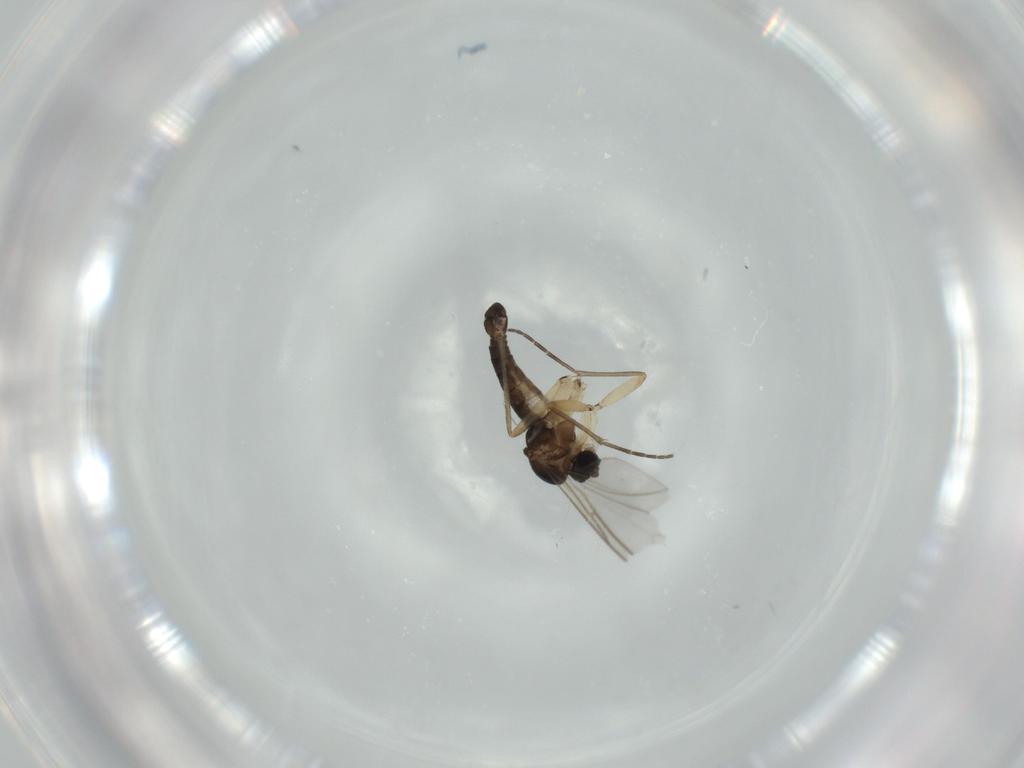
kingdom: Animalia
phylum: Arthropoda
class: Insecta
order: Diptera
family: Sciaridae
